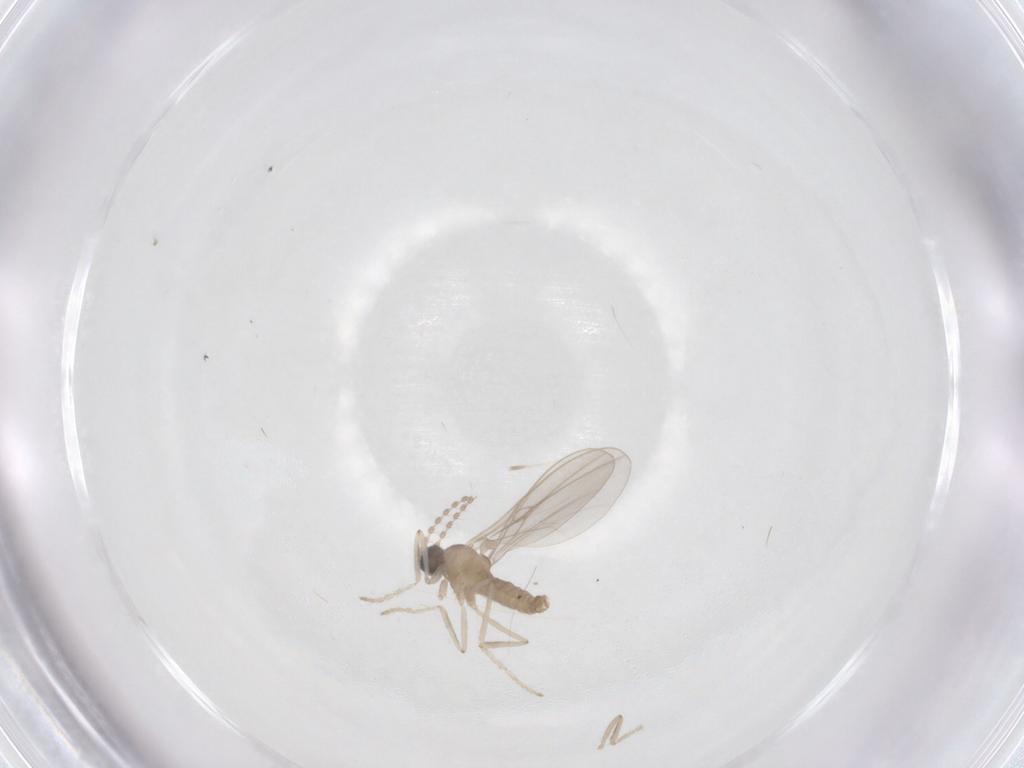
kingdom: Animalia
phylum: Arthropoda
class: Insecta
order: Diptera
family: Cecidomyiidae
